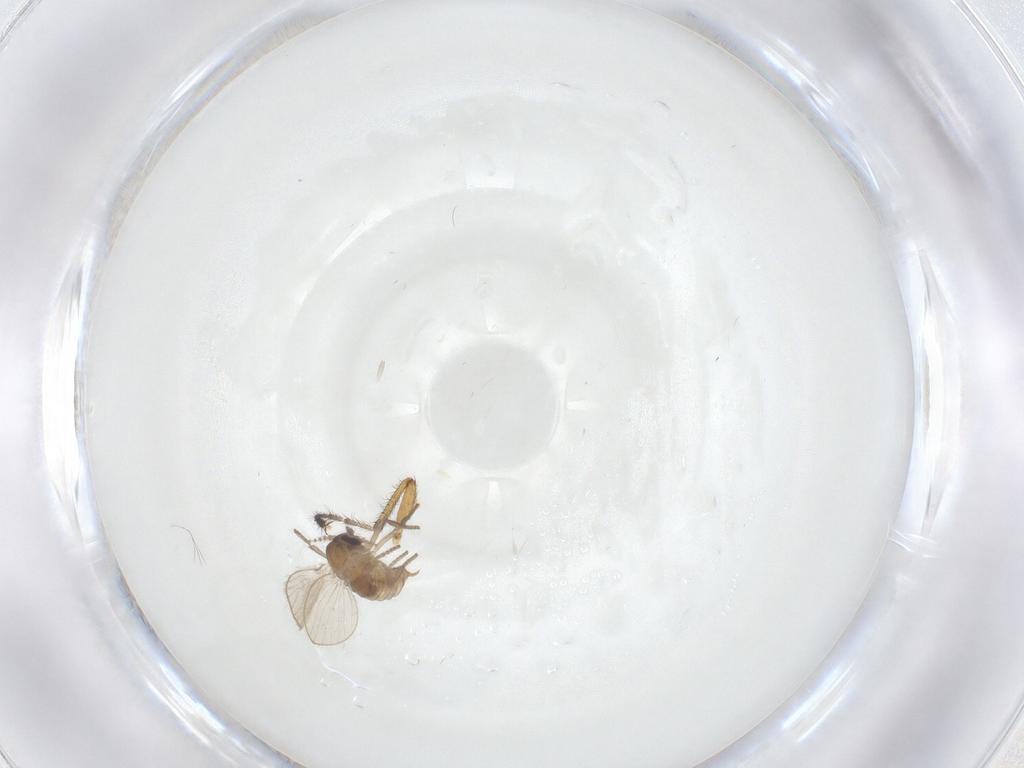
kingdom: Animalia
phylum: Arthropoda
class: Insecta
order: Diptera
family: Bibionidae
